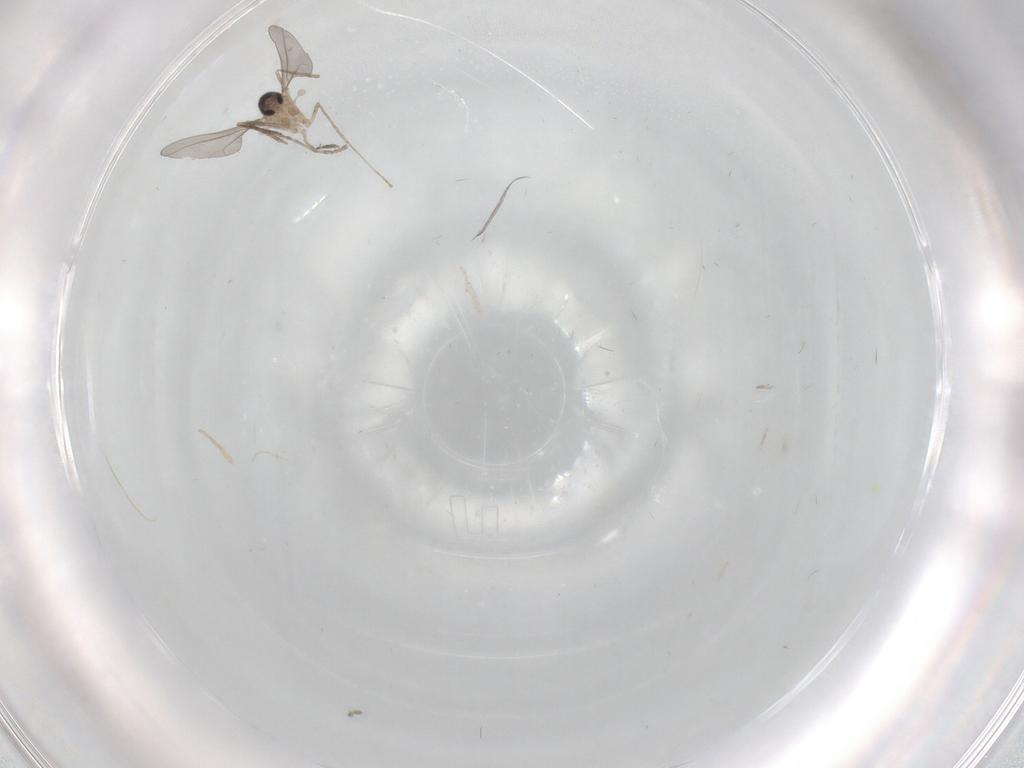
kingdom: Animalia
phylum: Arthropoda
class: Insecta
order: Diptera
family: Cecidomyiidae
